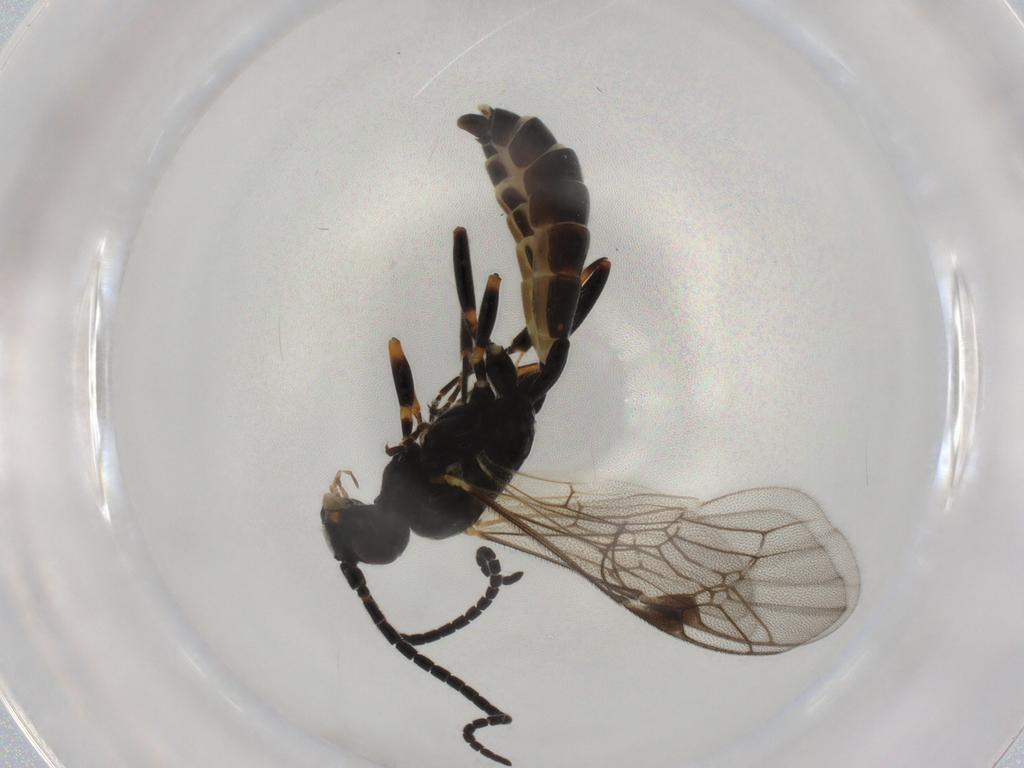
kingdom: Animalia
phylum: Arthropoda
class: Insecta
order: Hymenoptera
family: Ichneumonidae
